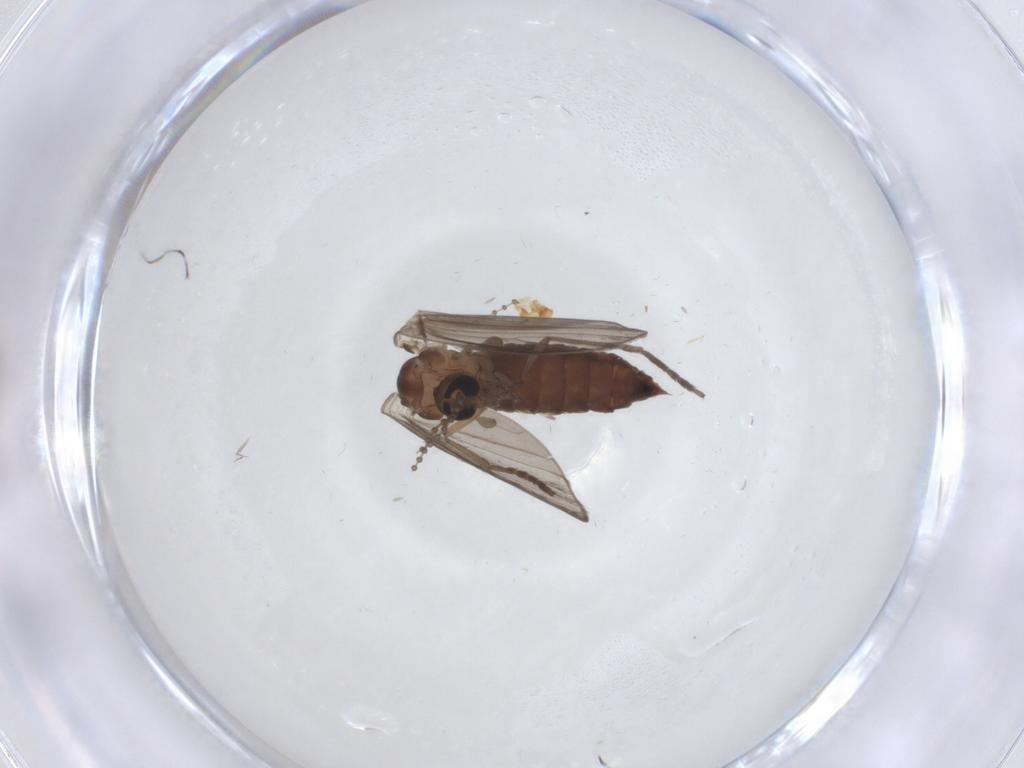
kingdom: Animalia
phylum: Arthropoda
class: Insecta
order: Diptera
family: Psychodidae
